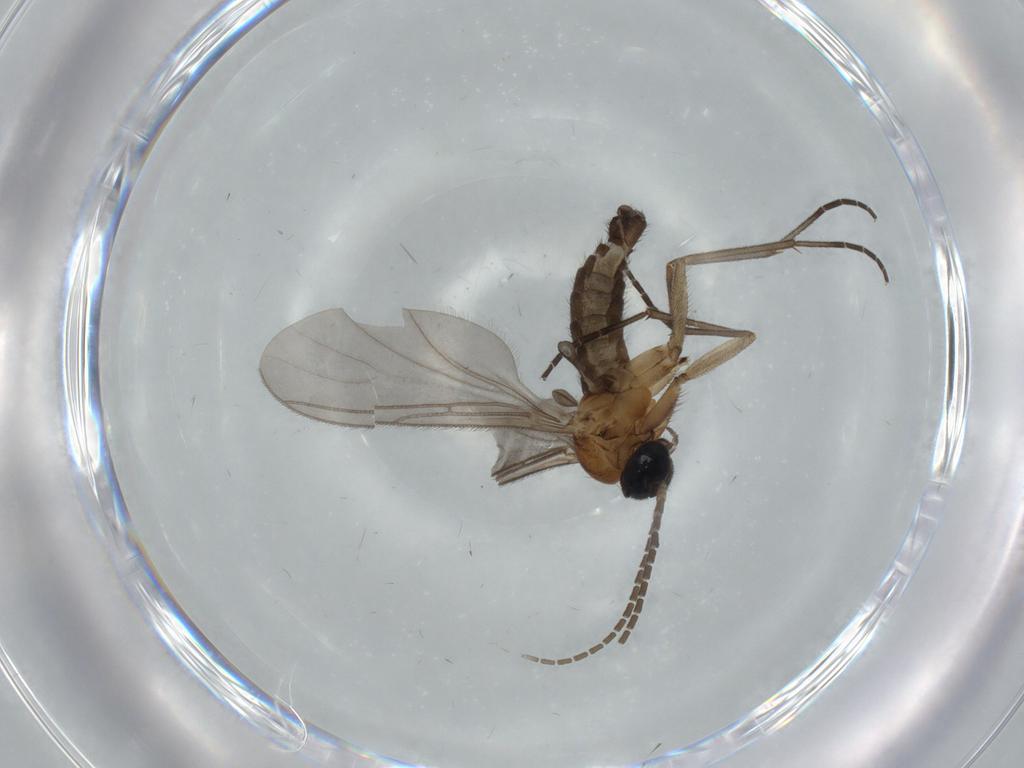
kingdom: Animalia
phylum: Arthropoda
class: Insecta
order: Diptera
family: Sciaridae
